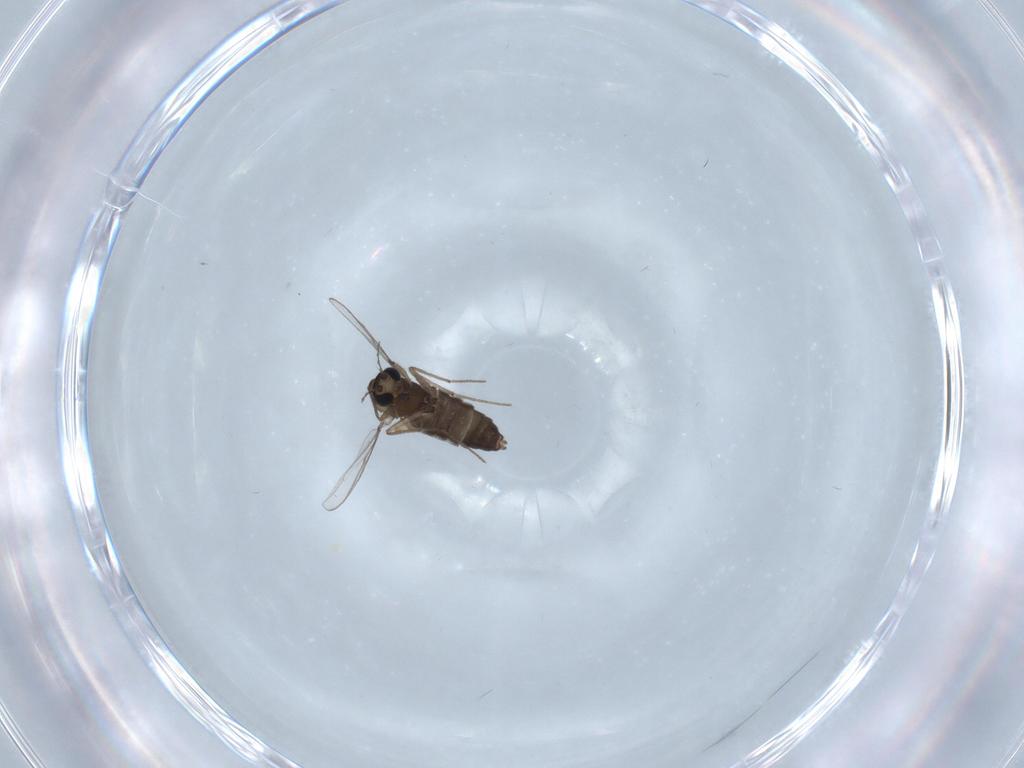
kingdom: Animalia
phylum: Arthropoda
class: Insecta
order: Diptera
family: Chironomidae
